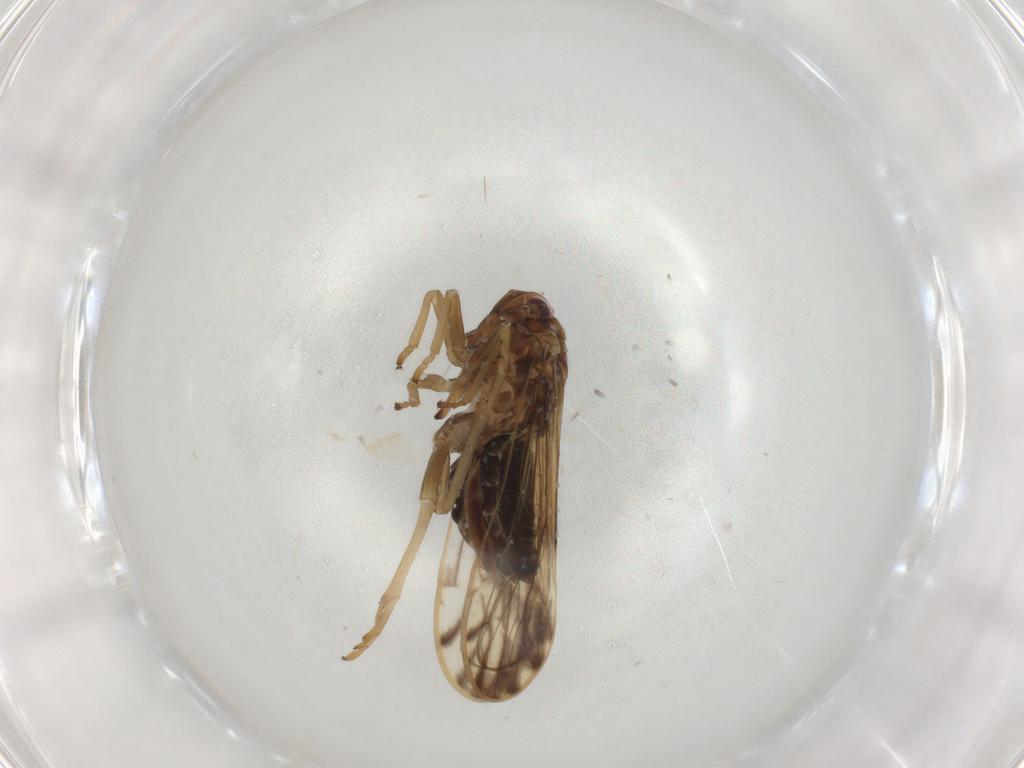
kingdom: Animalia
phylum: Arthropoda
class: Insecta
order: Hemiptera
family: Delphacidae
